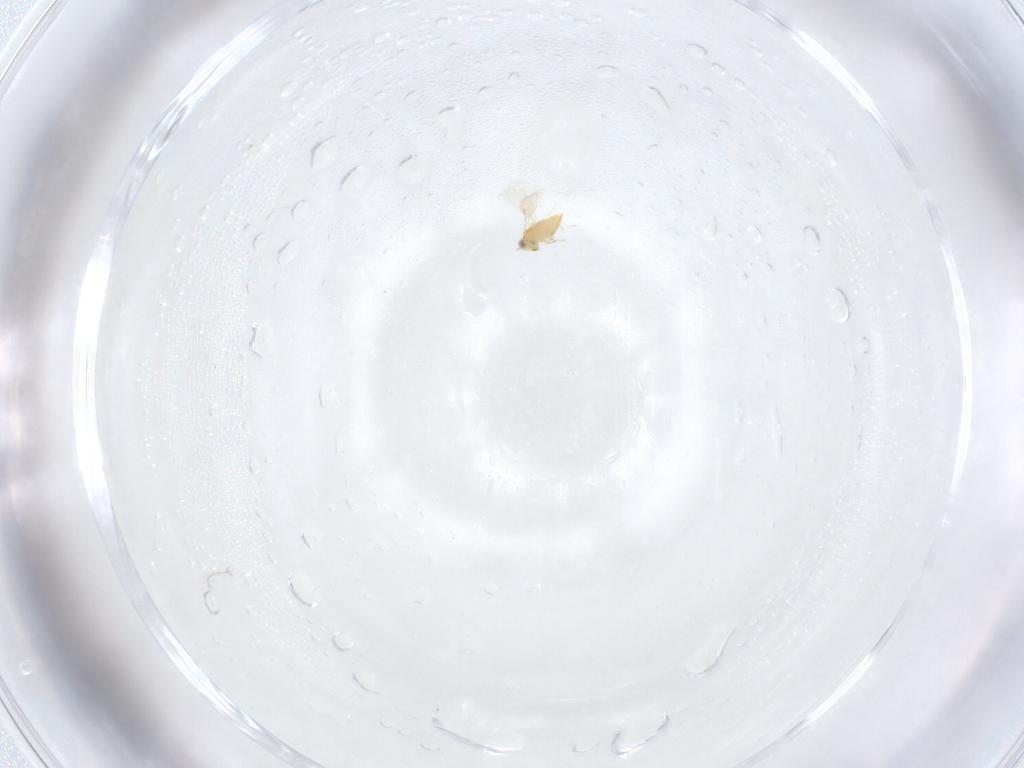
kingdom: Animalia
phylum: Arthropoda
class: Insecta
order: Hymenoptera
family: Aphelinidae
